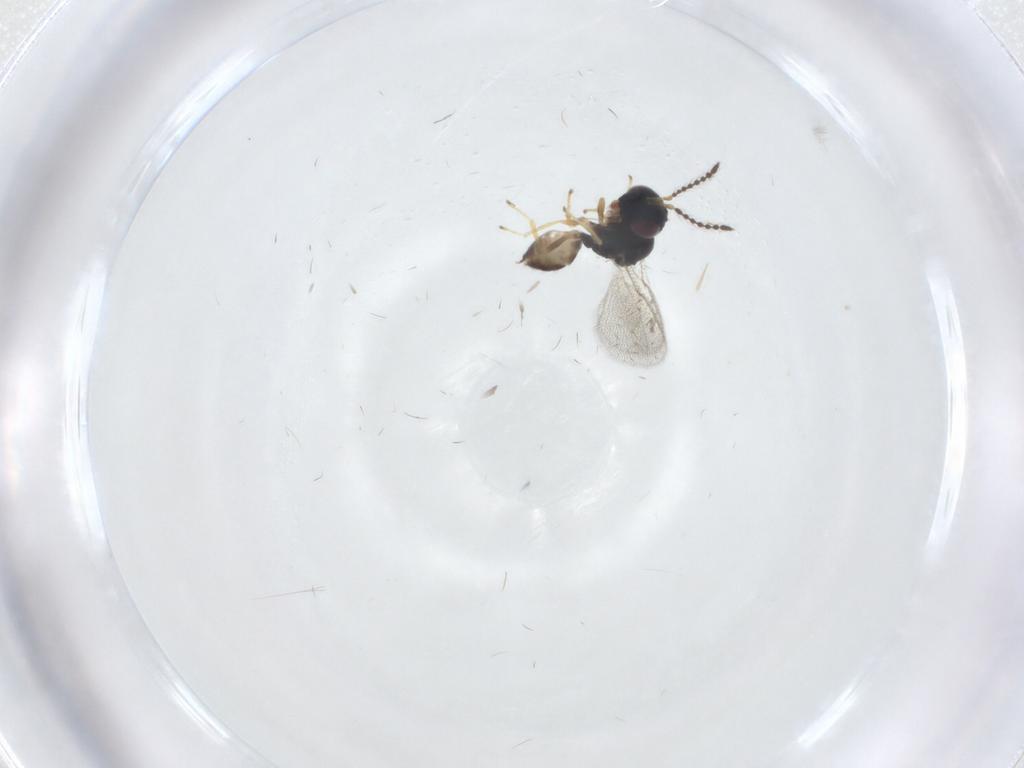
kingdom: Animalia
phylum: Arthropoda
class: Insecta
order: Hymenoptera
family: Pteromalidae
